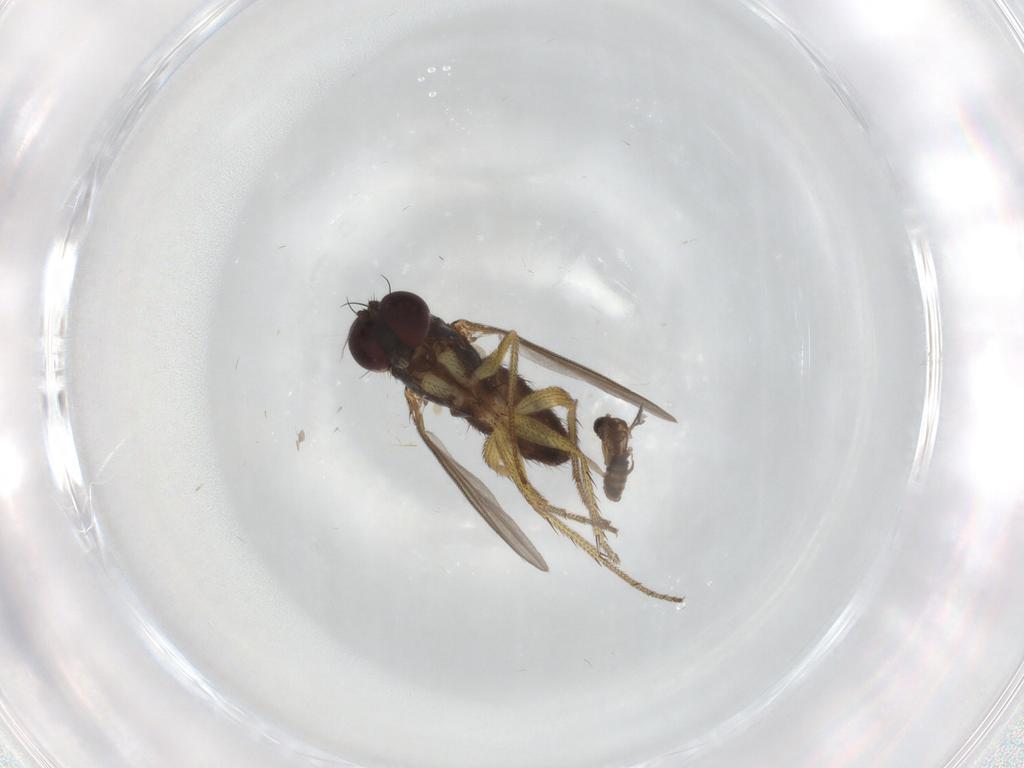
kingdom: Animalia
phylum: Arthropoda
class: Insecta
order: Diptera
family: Dolichopodidae
